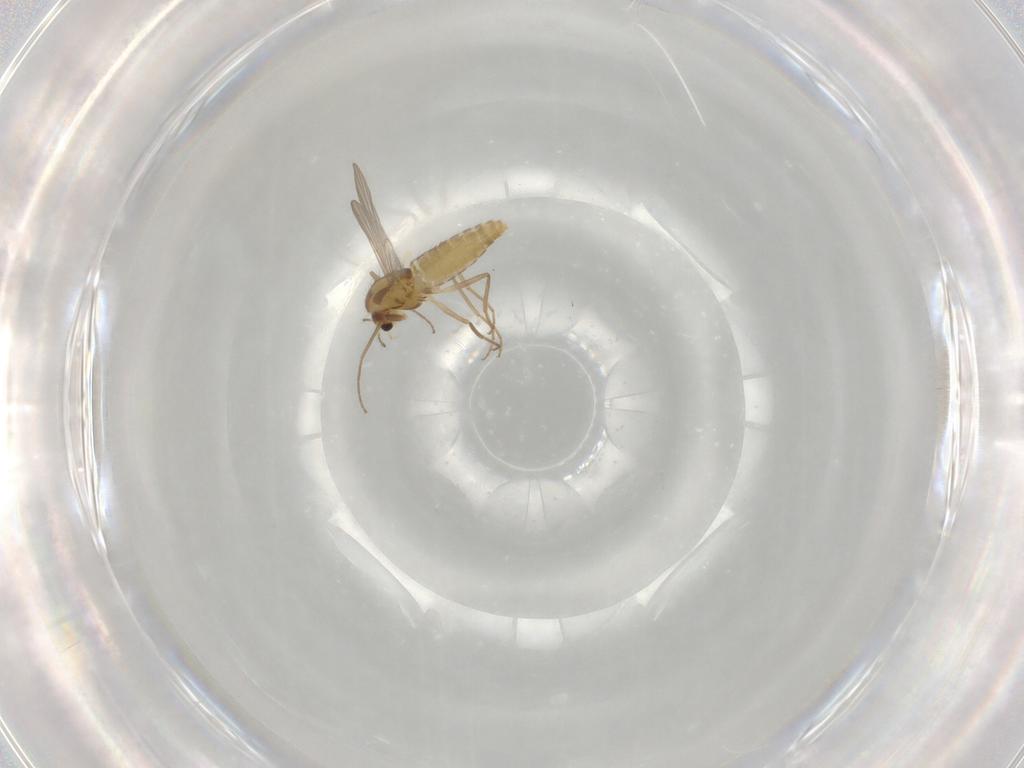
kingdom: Animalia
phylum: Arthropoda
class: Insecta
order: Diptera
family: Chironomidae
